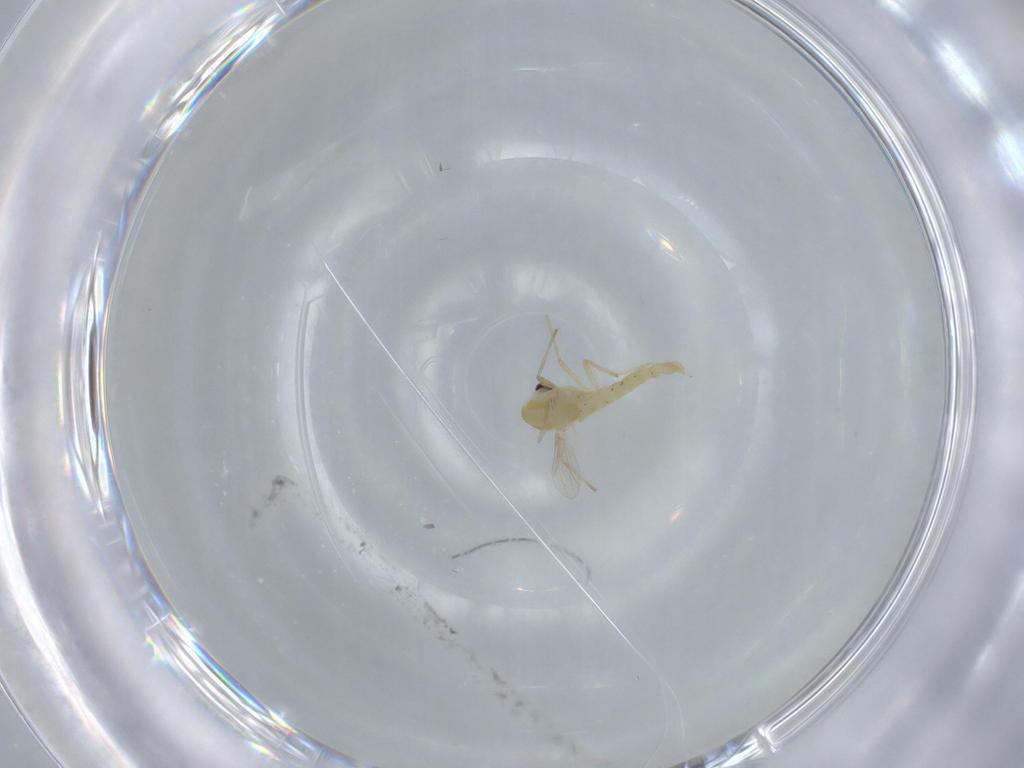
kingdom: Animalia
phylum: Arthropoda
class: Insecta
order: Diptera
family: Chironomidae
